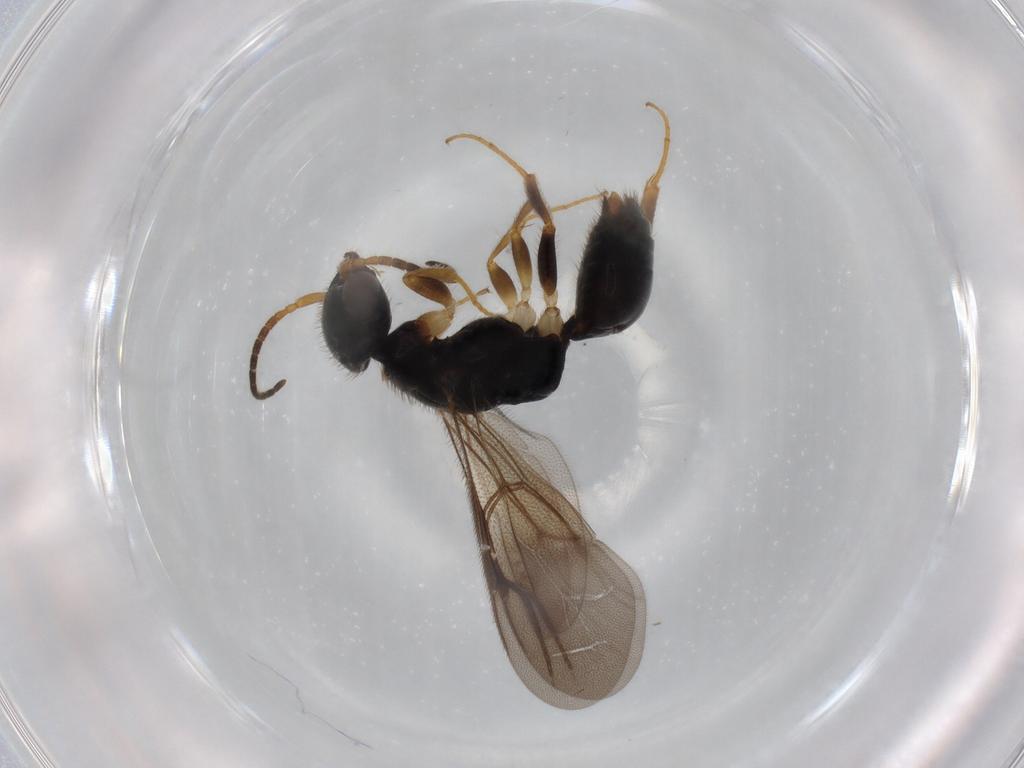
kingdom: Animalia
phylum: Arthropoda
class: Insecta
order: Hymenoptera
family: Bethylidae
